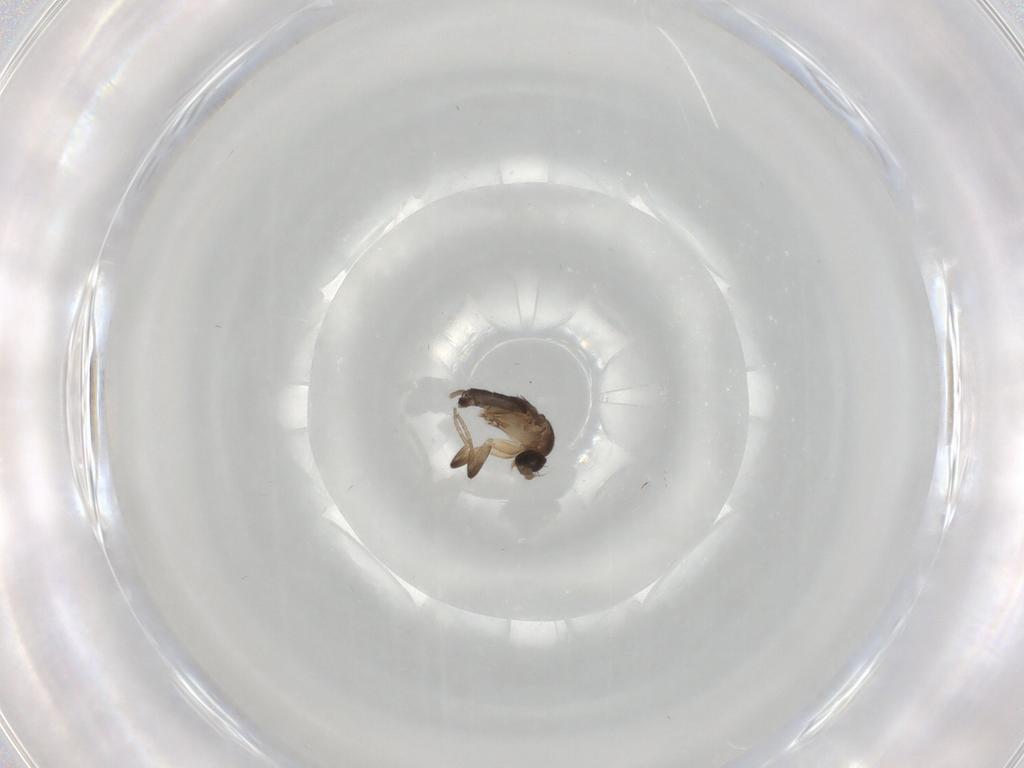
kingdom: Animalia
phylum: Arthropoda
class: Insecta
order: Diptera
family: Phoridae
